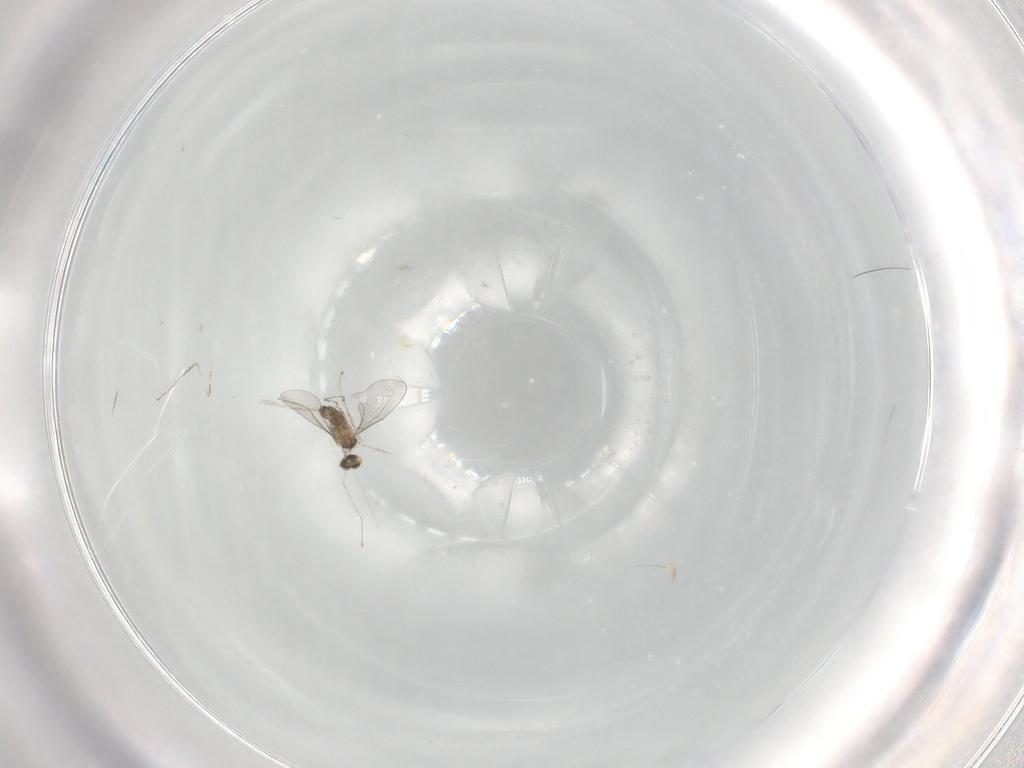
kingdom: Animalia
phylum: Arthropoda
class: Insecta
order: Diptera
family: Cecidomyiidae
